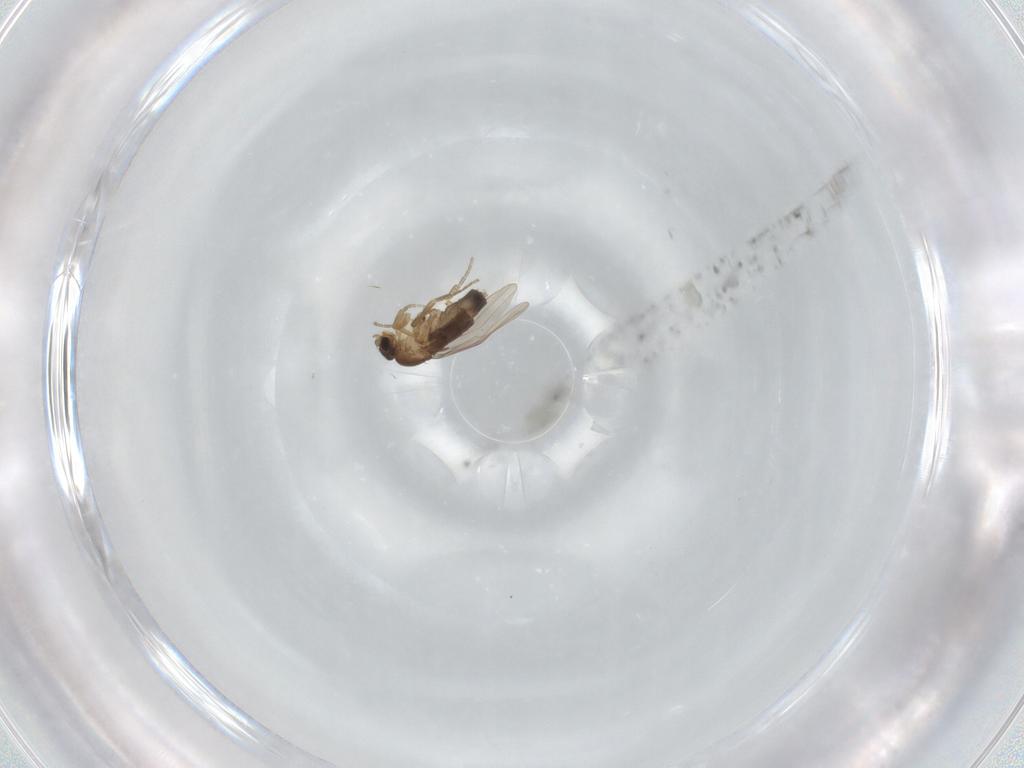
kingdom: Animalia
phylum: Arthropoda
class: Insecta
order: Diptera
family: Phoridae
